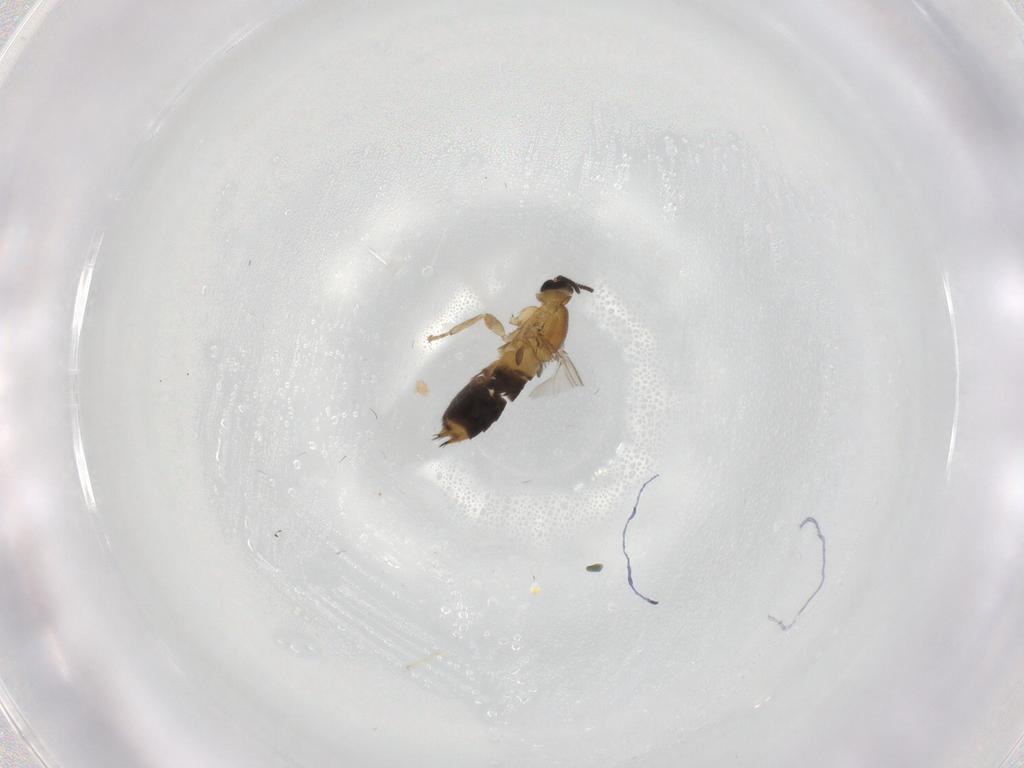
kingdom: Animalia
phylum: Arthropoda
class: Insecta
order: Diptera
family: Scatopsidae
